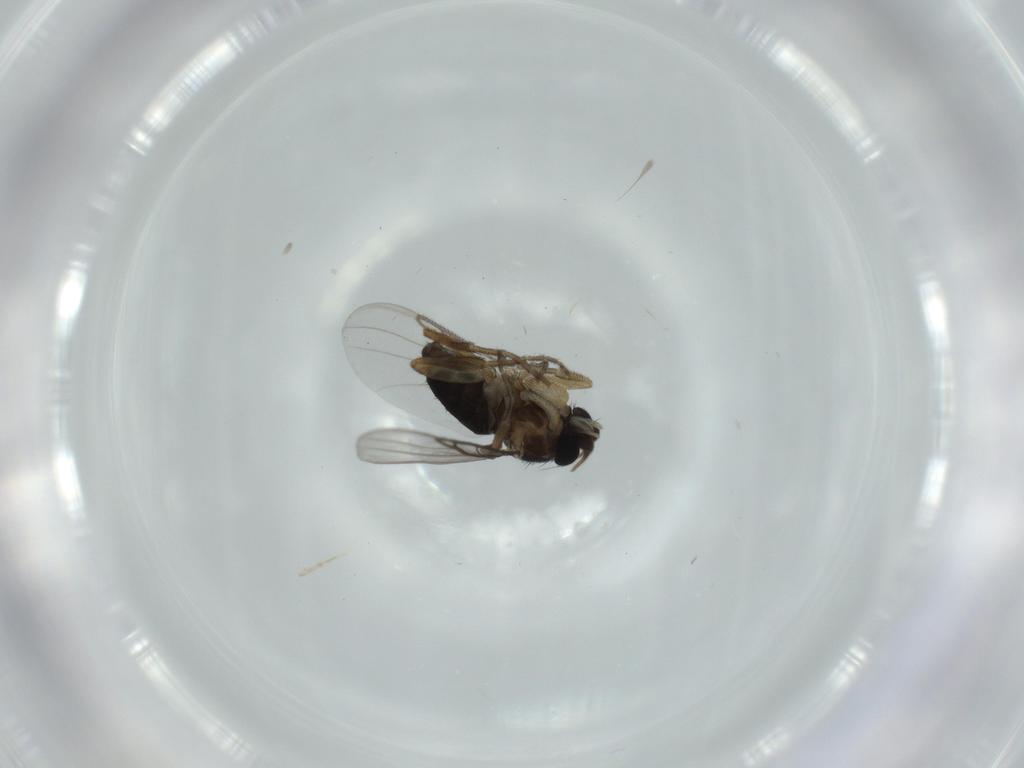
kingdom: Animalia
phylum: Arthropoda
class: Insecta
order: Diptera
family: Phoridae
